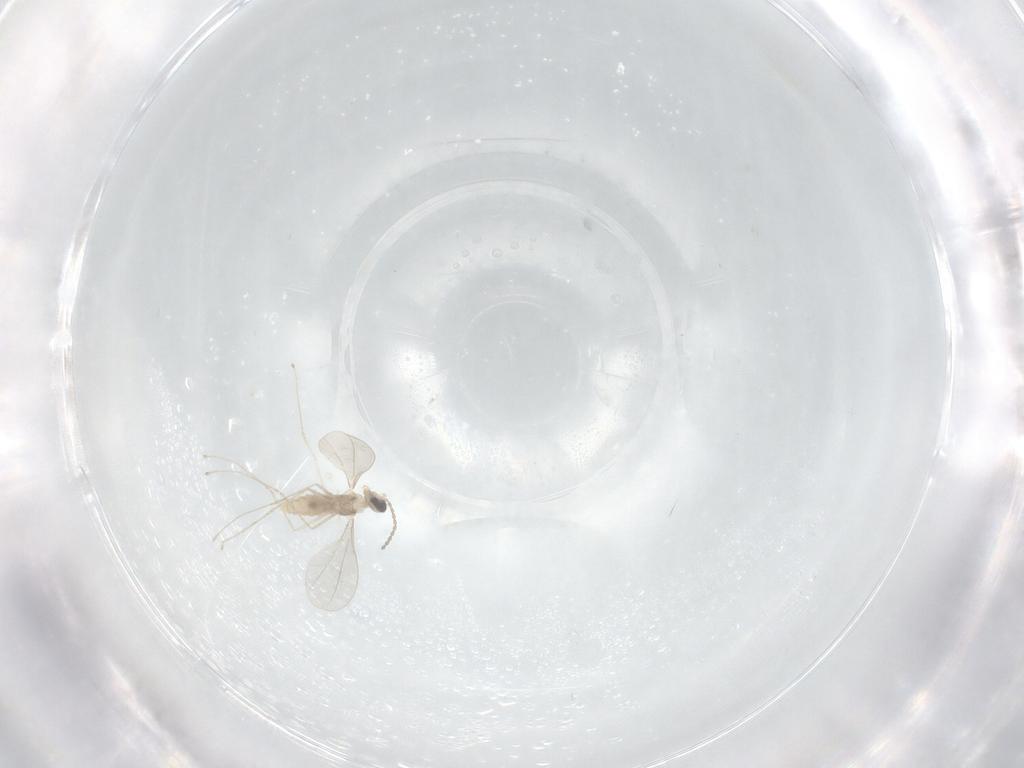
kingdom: Animalia
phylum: Arthropoda
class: Insecta
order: Diptera
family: Cecidomyiidae
